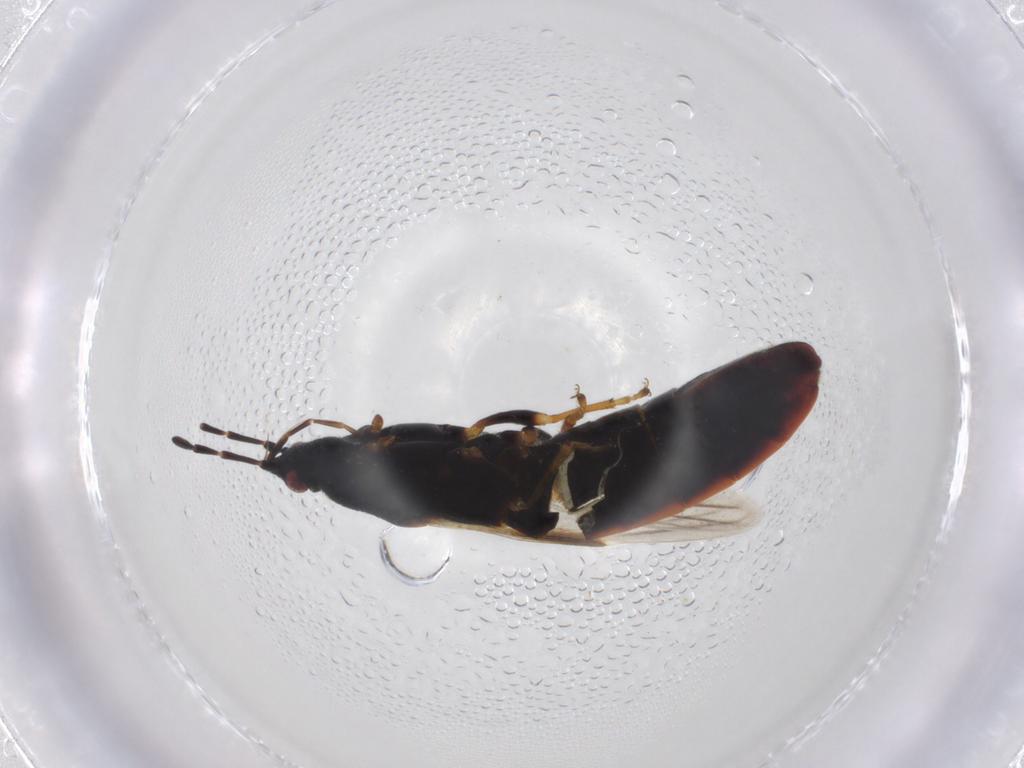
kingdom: Animalia
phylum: Arthropoda
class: Insecta
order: Hemiptera
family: Blissidae
